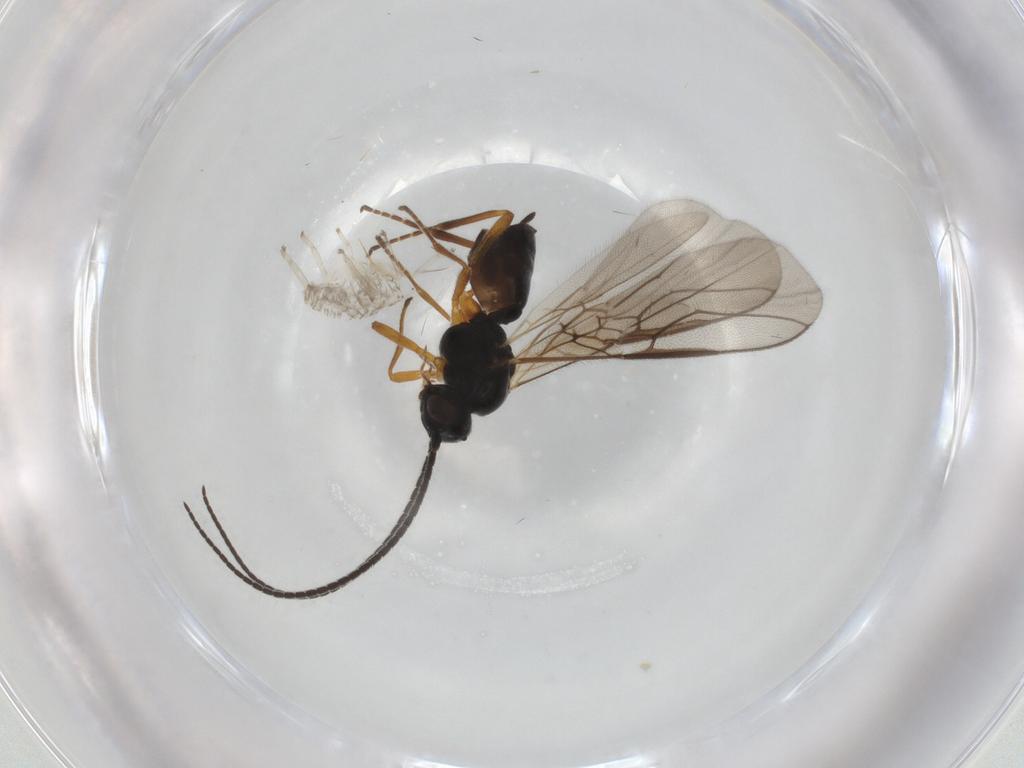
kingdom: Animalia
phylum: Arthropoda
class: Insecta
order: Hymenoptera
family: Braconidae
